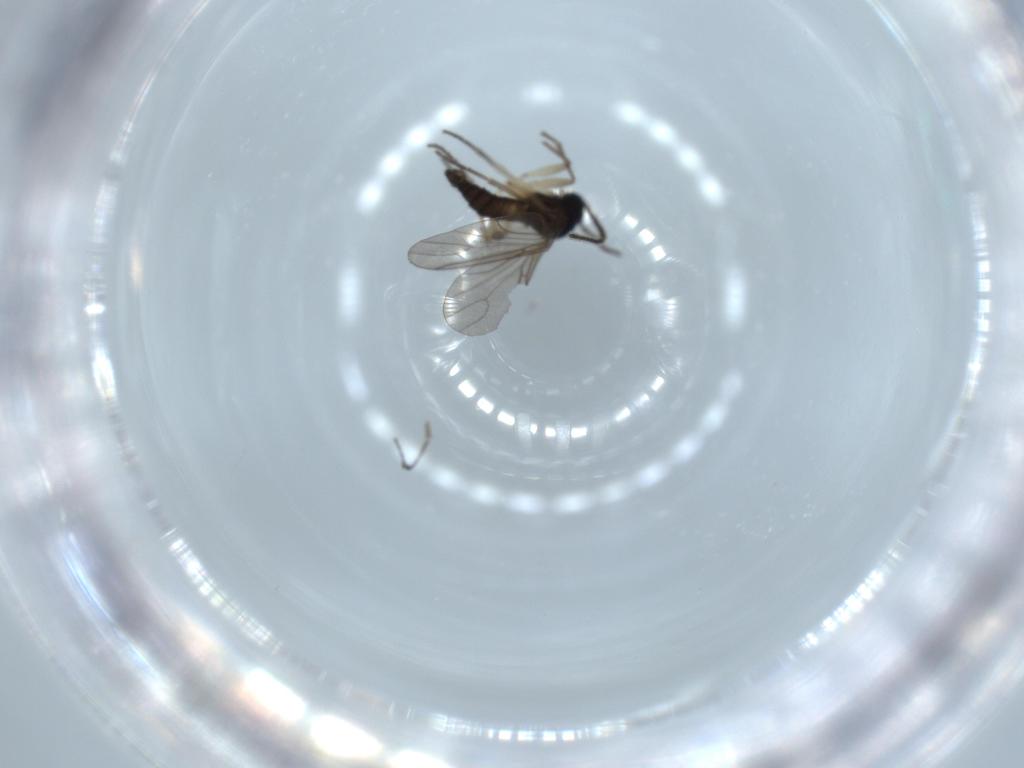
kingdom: Animalia
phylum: Arthropoda
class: Insecta
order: Diptera
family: Sciaridae
